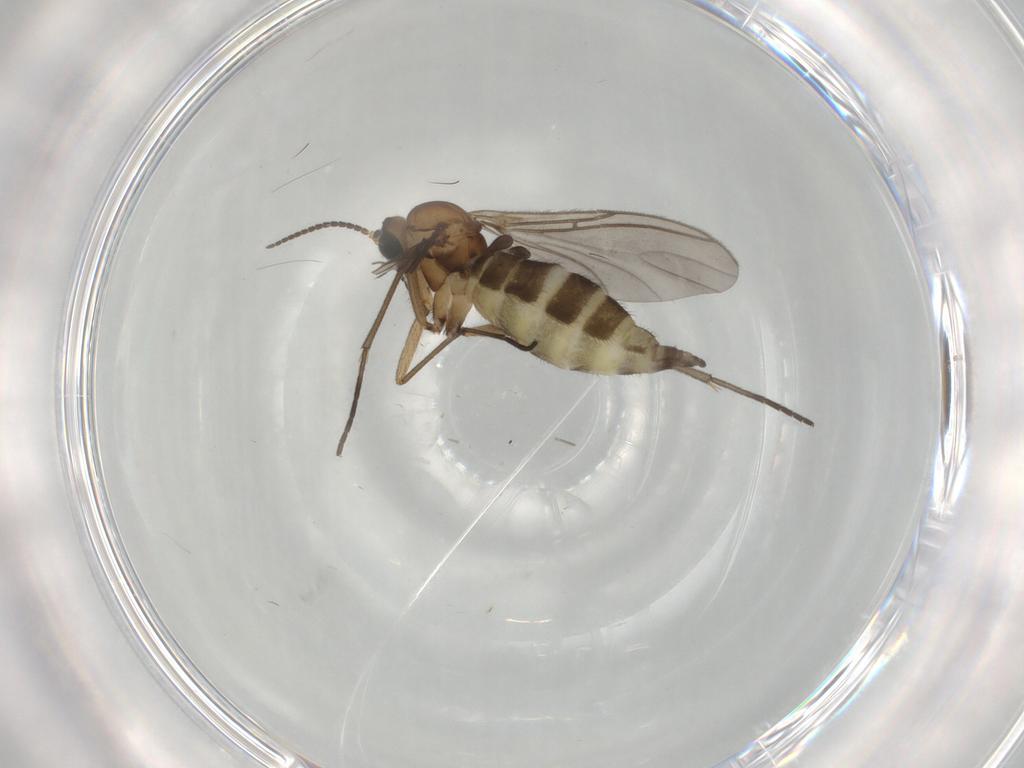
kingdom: Animalia
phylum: Arthropoda
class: Insecta
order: Diptera
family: Sciaridae
